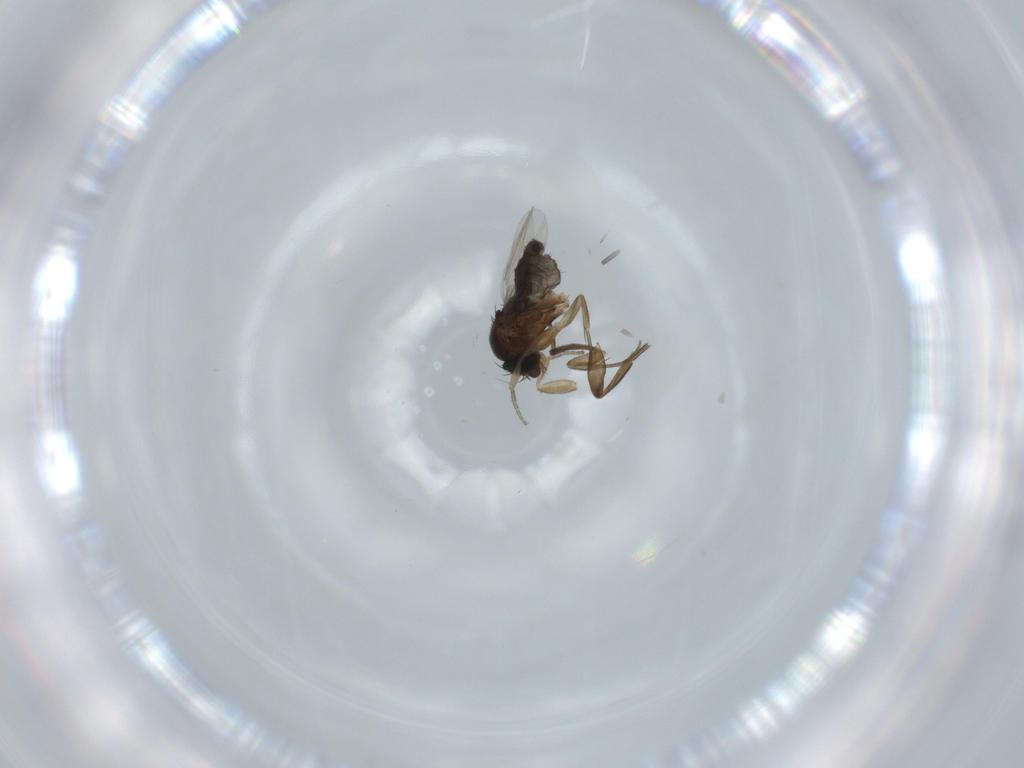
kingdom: Animalia
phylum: Arthropoda
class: Insecta
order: Diptera
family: Phoridae
